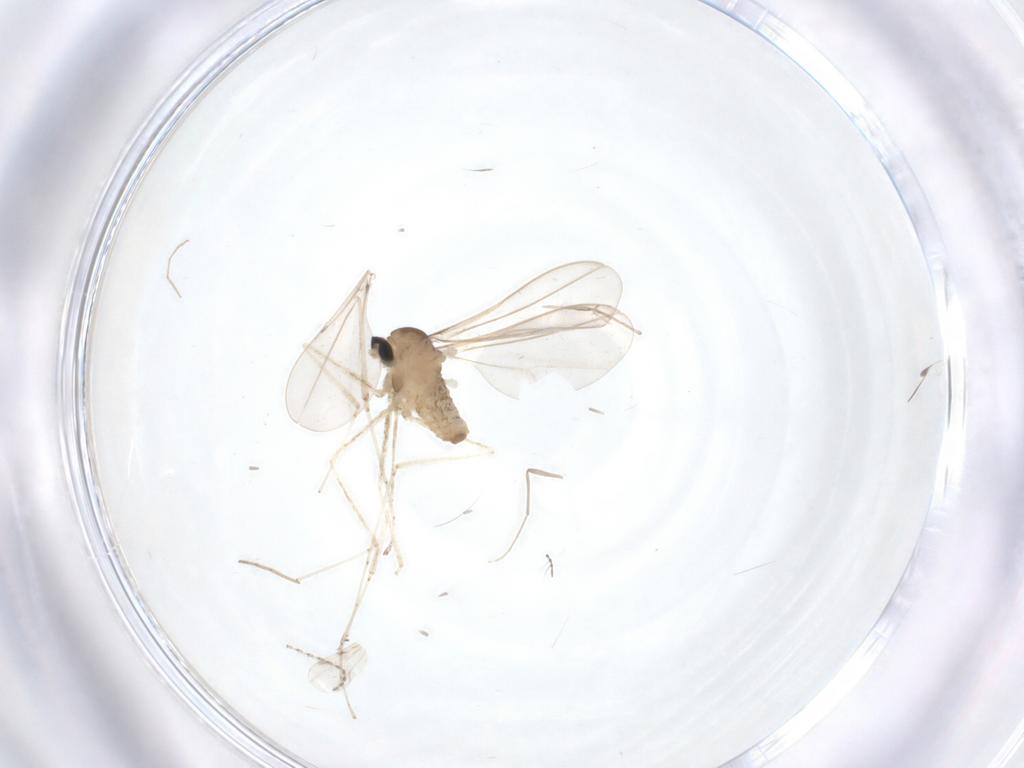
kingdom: Animalia
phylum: Arthropoda
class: Insecta
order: Diptera
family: Cecidomyiidae
